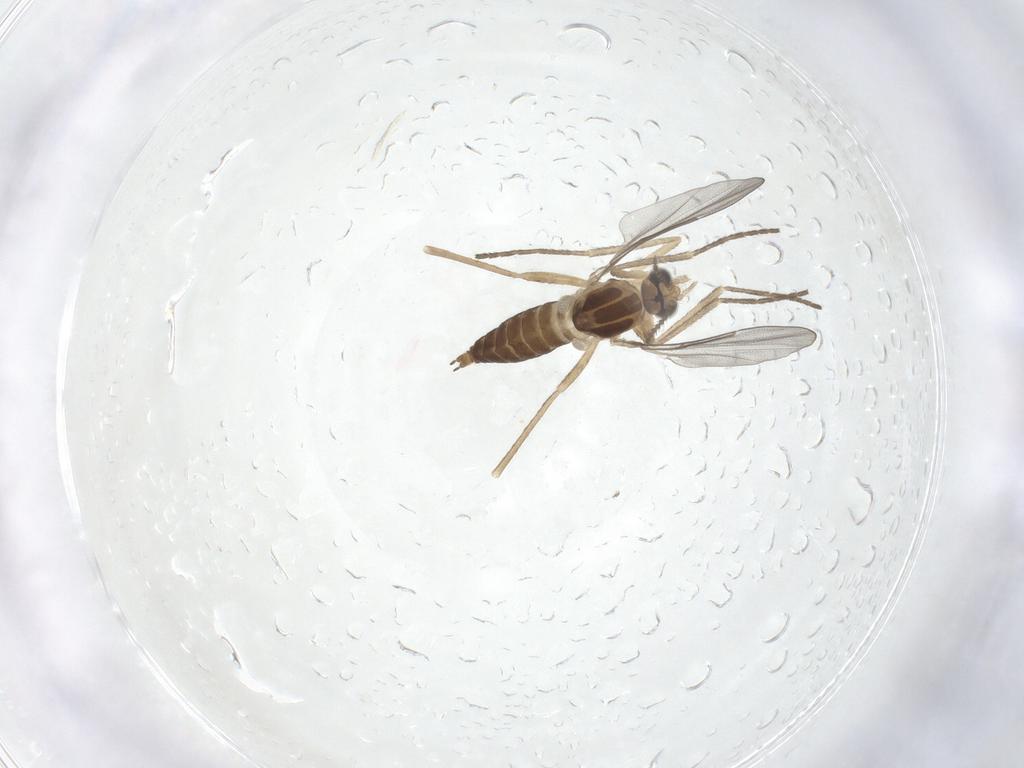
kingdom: Animalia
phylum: Arthropoda
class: Insecta
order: Diptera
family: Cecidomyiidae
